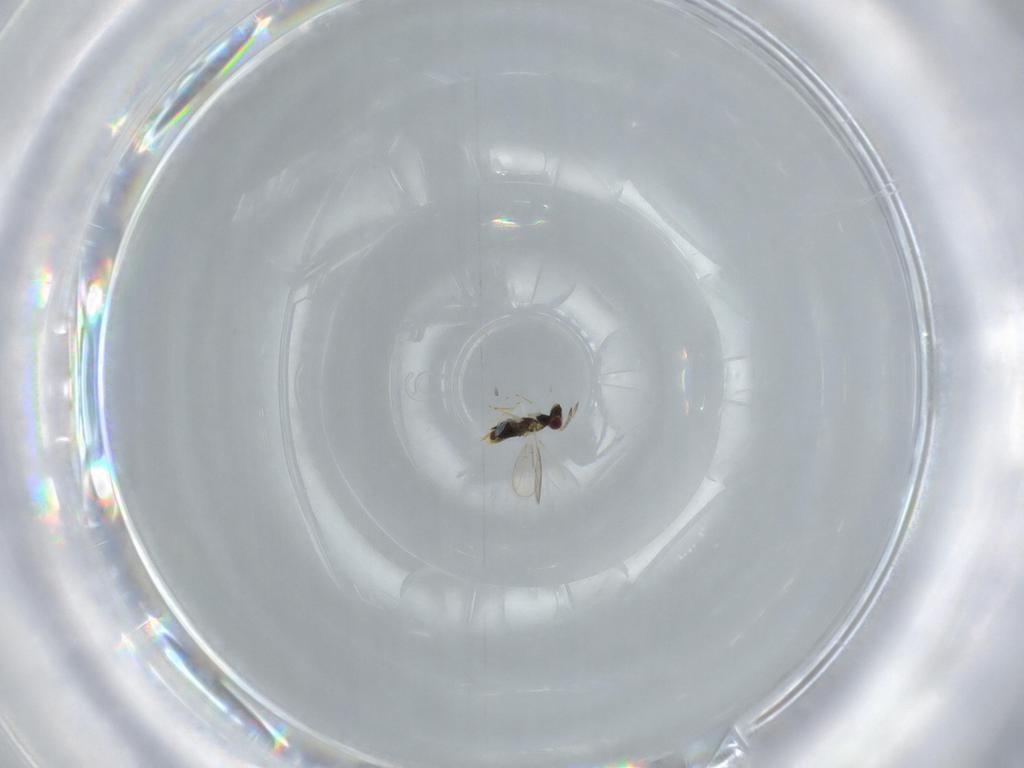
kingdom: Animalia
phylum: Arthropoda
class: Insecta
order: Hymenoptera
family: Aphelinidae
